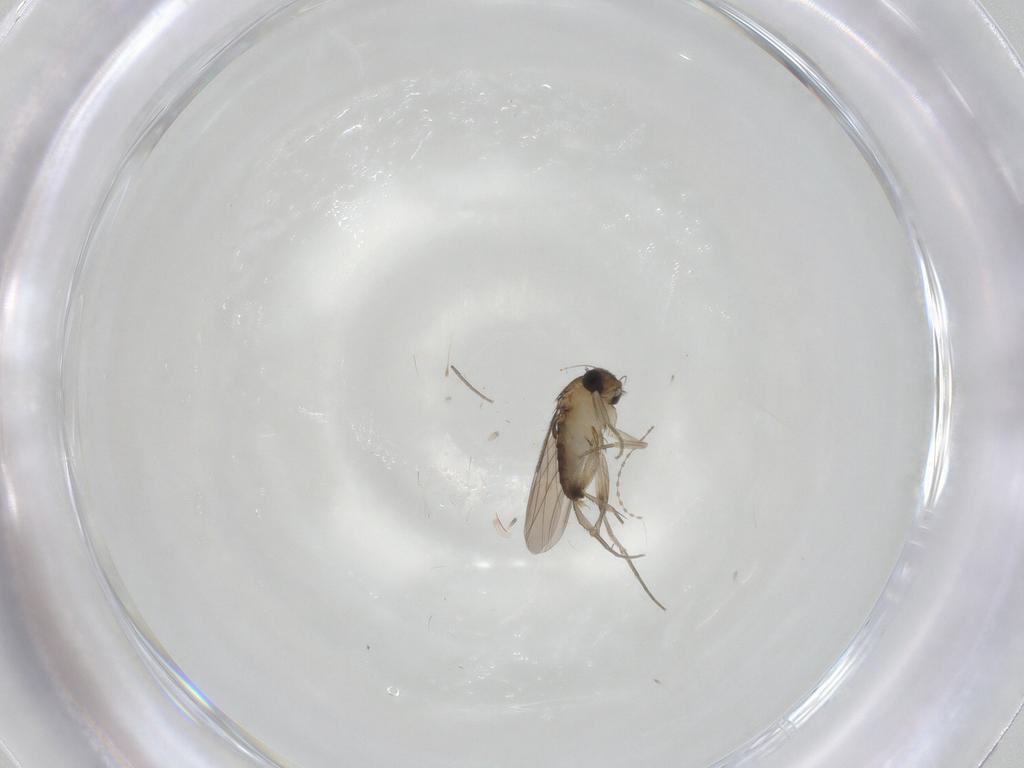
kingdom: Animalia
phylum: Arthropoda
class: Insecta
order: Diptera
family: Phoridae
